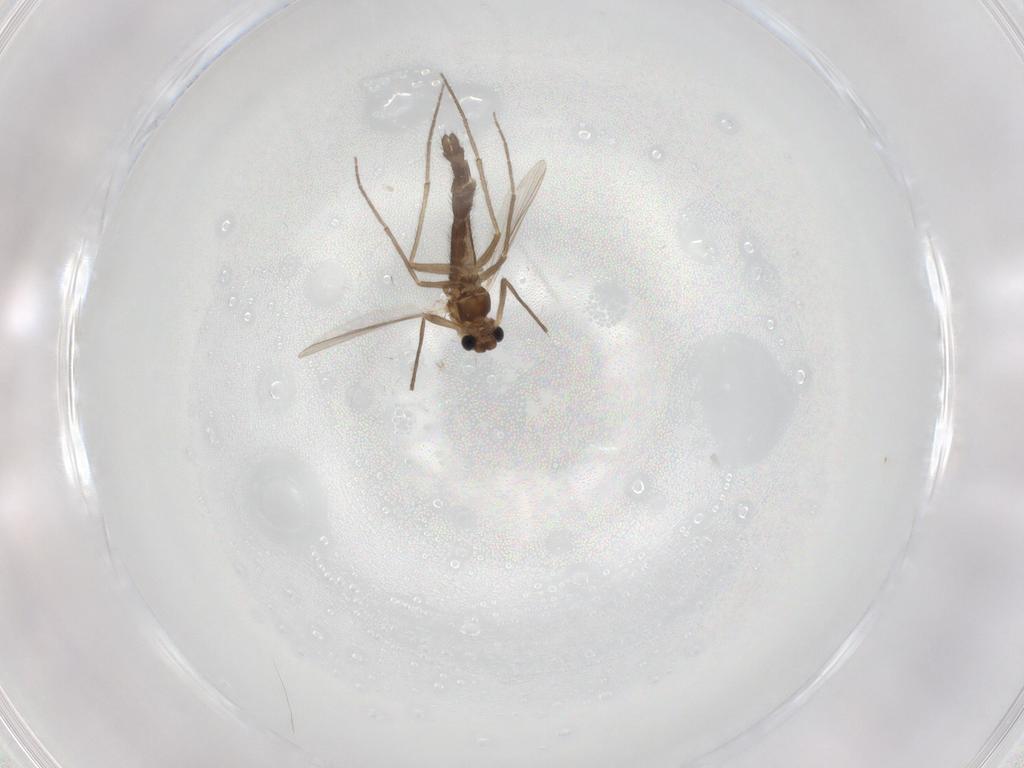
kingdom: Animalia
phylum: Arthropoda
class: Insecta
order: Diptera
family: Chironomidae
